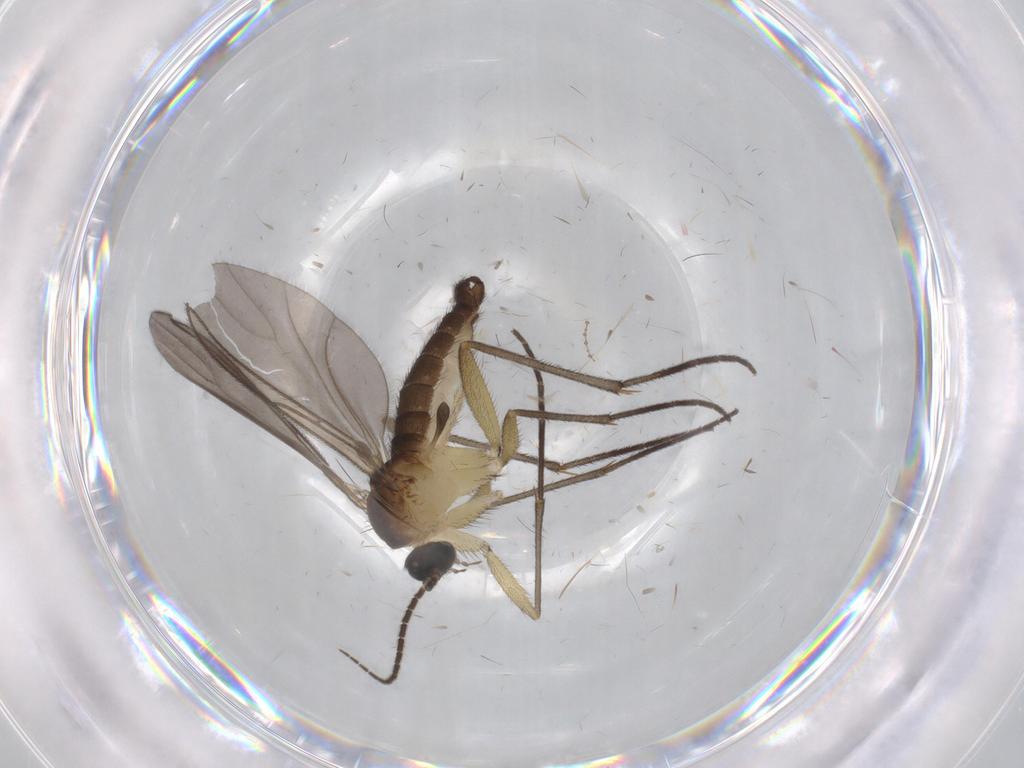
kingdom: Animalia
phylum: Arthropoda
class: Insecta
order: Diptera
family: Sciaridae
